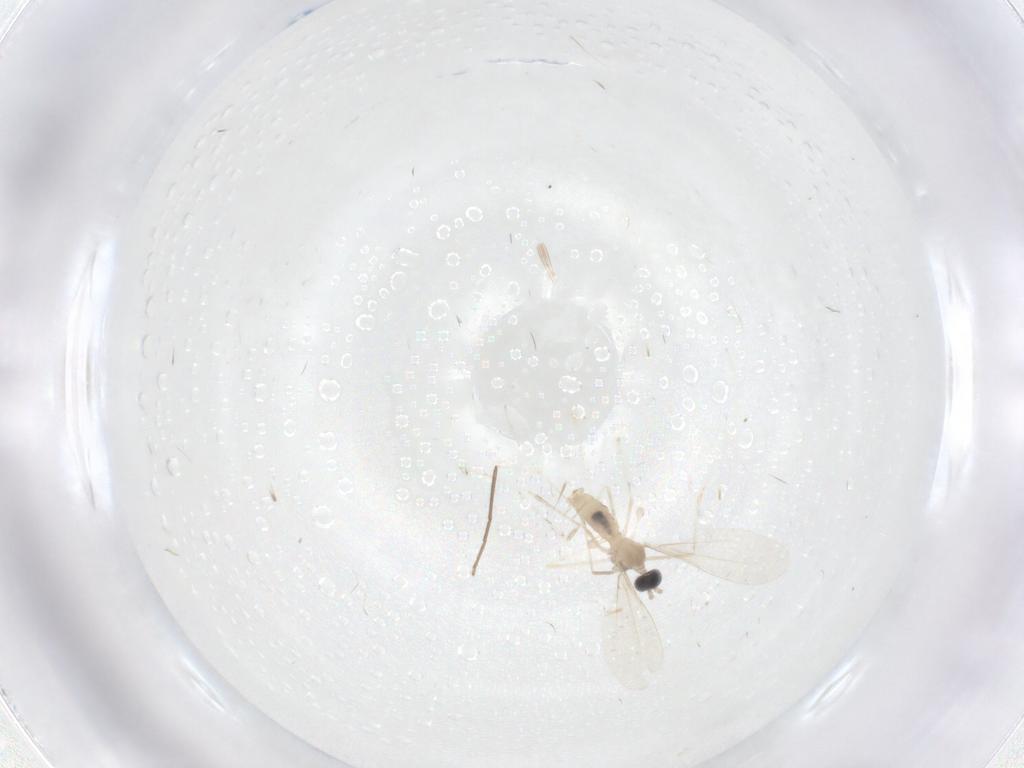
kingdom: Animalia
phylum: Arthropoda
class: Insecta
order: Diptera
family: Cecidomyiidae
